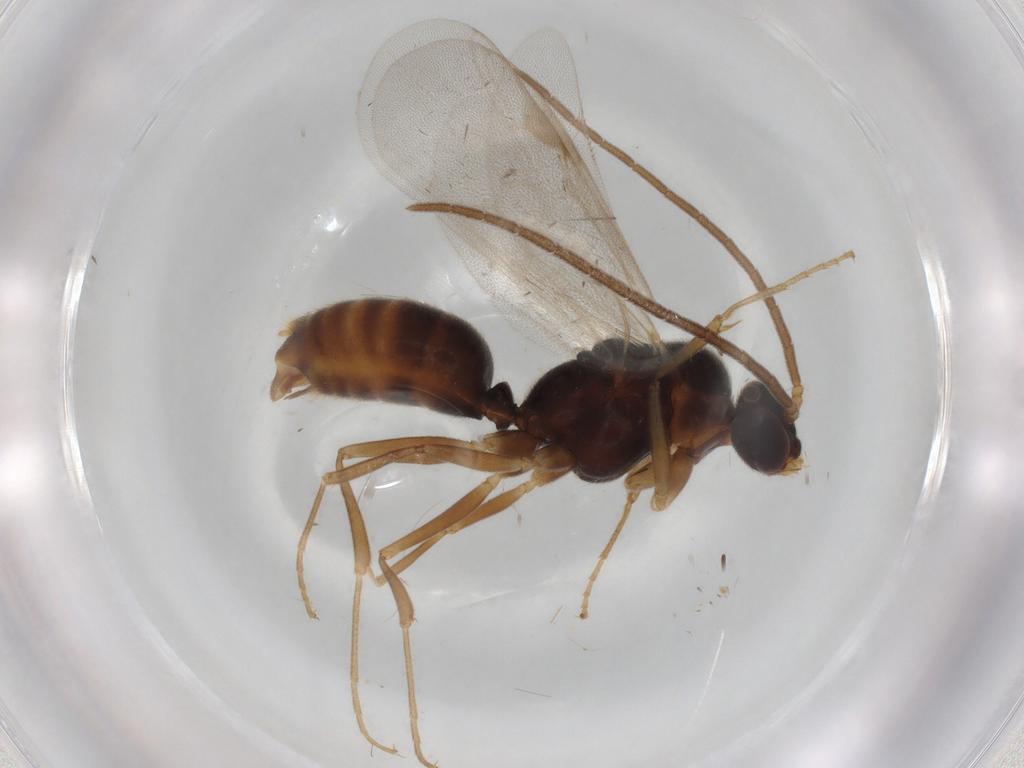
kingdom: Animalia
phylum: Arthropoda
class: Insecta
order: Hymenoptera
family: Formicidae
